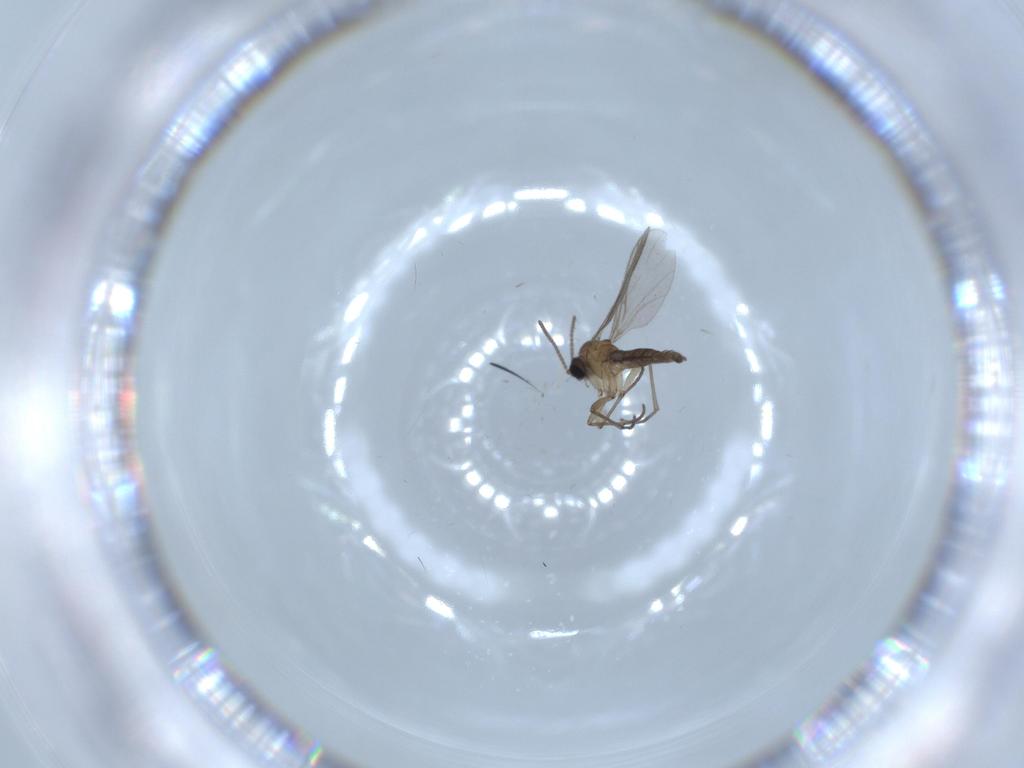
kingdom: Animalia
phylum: Arthropoda
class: Insecta
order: Diptera
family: Sciaridae
